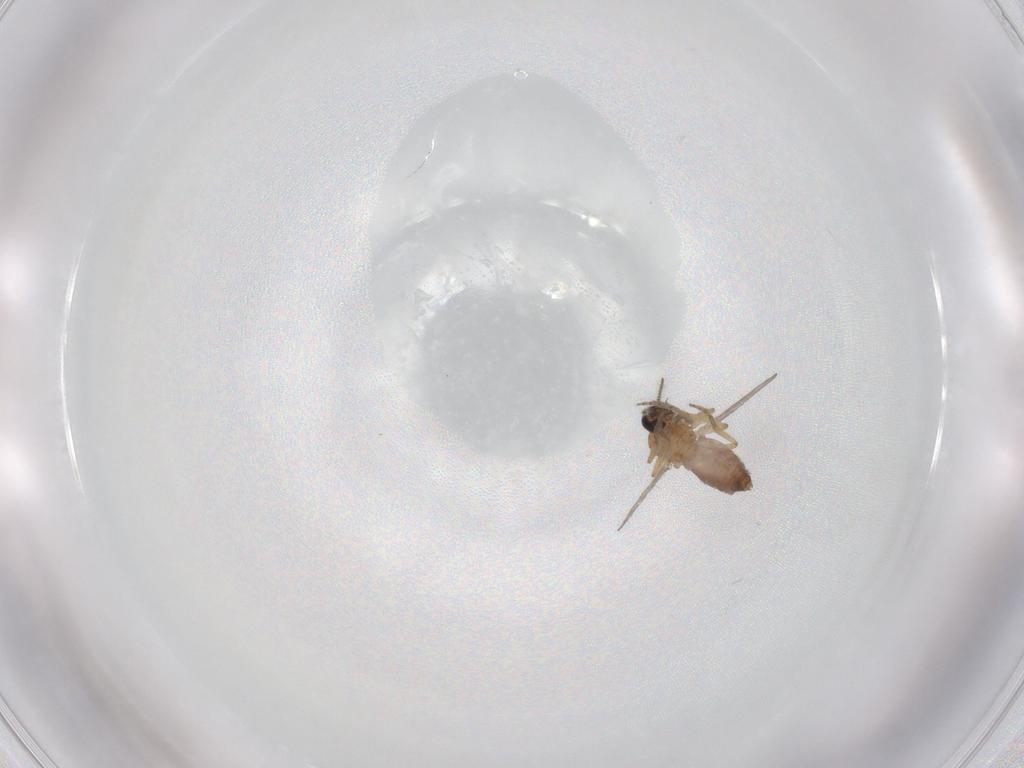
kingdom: Animalia
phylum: Arthropoda
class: Insecta
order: Diptera
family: Ceratopogonidae
